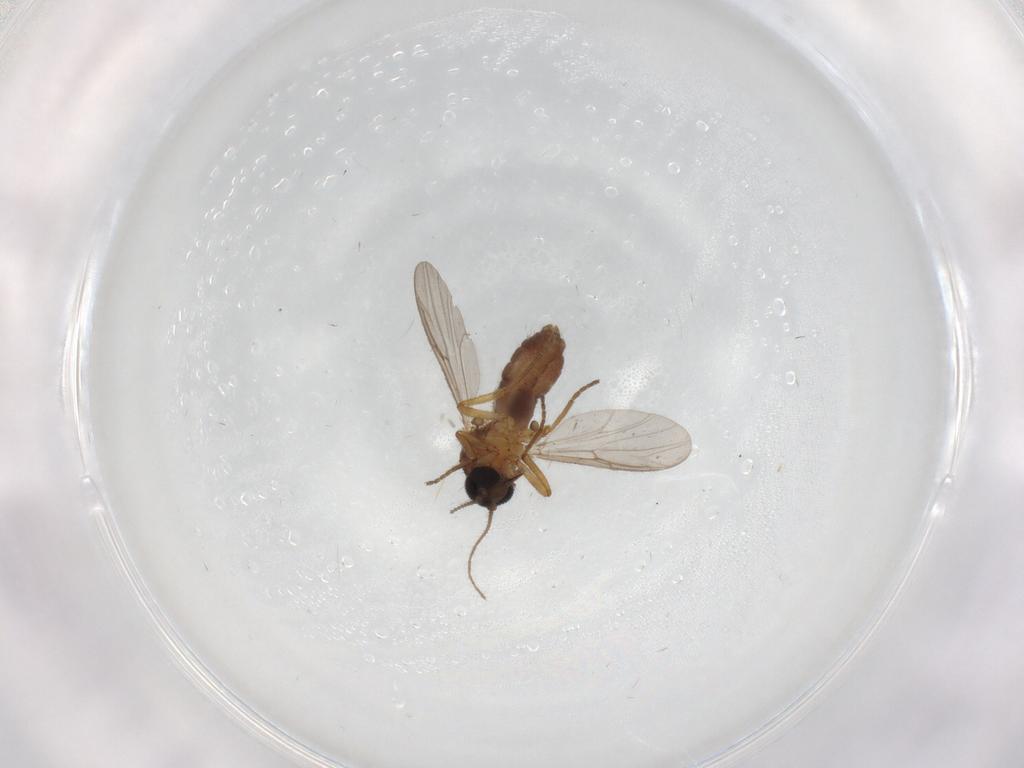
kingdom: Animalia
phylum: Arthropoda
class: Insecta
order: Diptera
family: Ceratopogonidae
